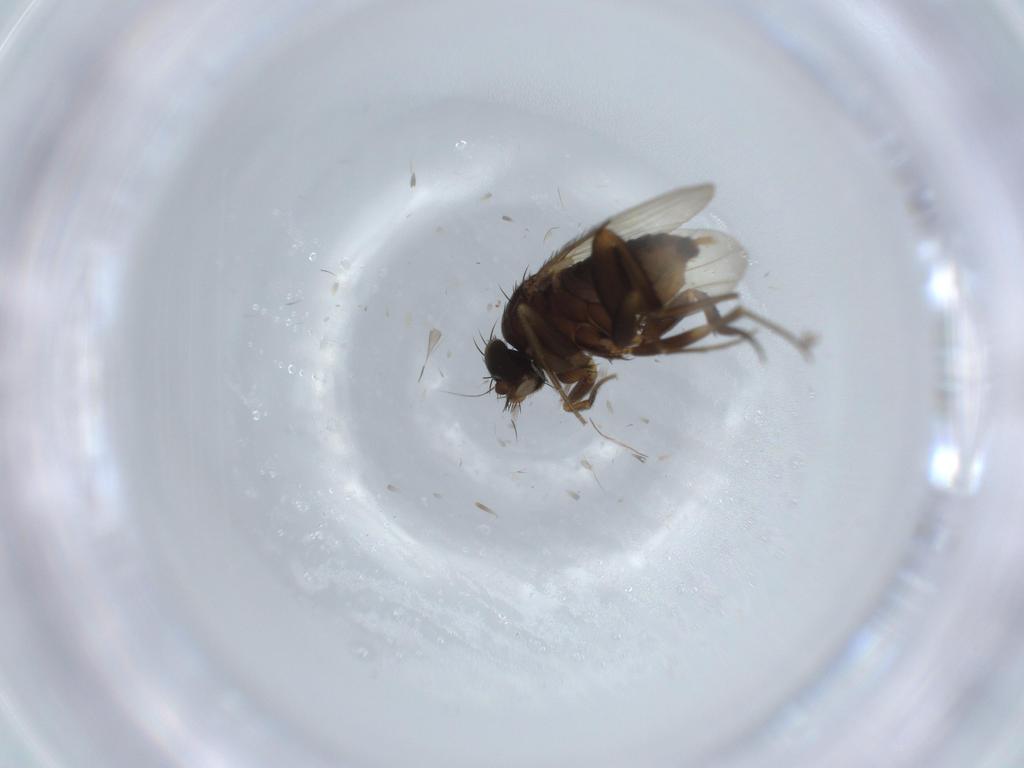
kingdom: Animalia
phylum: Arthropoda
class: Insecta
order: Diptera
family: Phoridae
